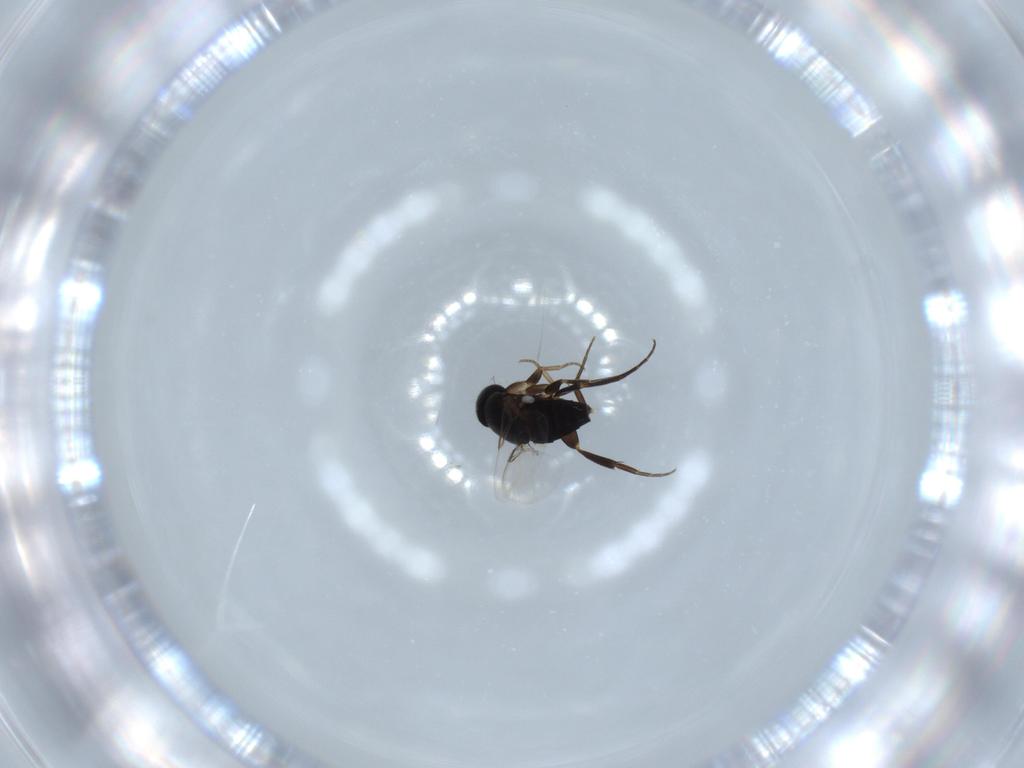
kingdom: Animalia
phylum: Arthropoda
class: Insecta
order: Diptera
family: Phoridae
